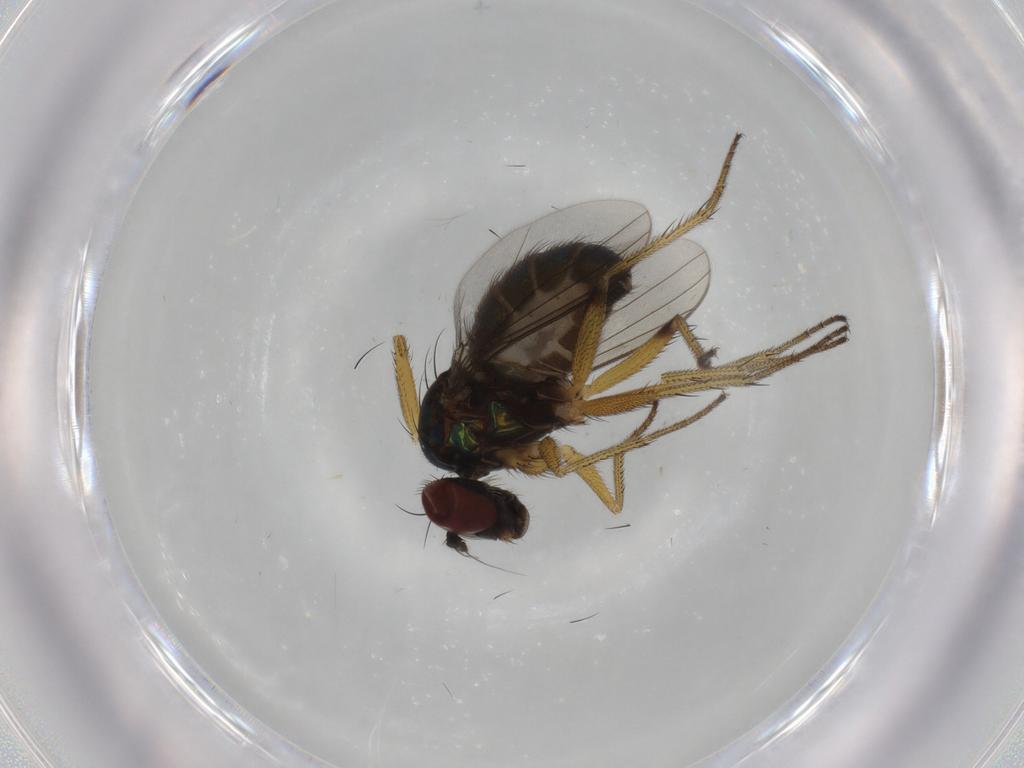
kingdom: Animalia
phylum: Arthropoda
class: Insecta
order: Diptera
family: Dolichopodidae
